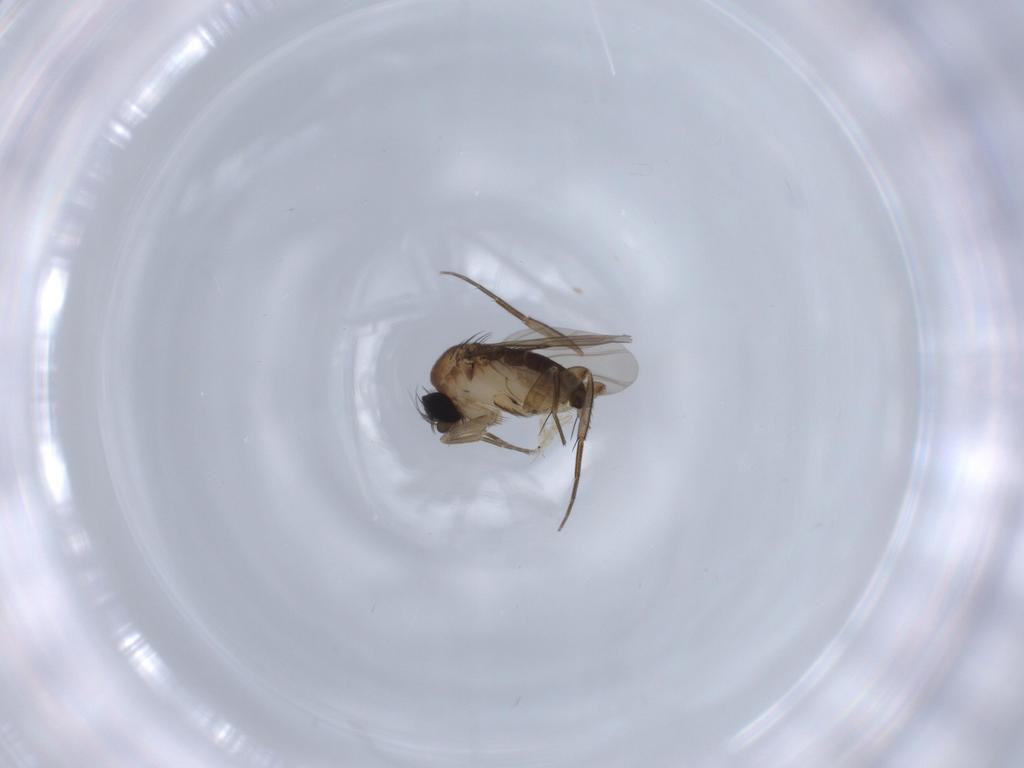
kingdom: Animalia
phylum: Arthropoda
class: Insecta
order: Diptera
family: Phoridae
